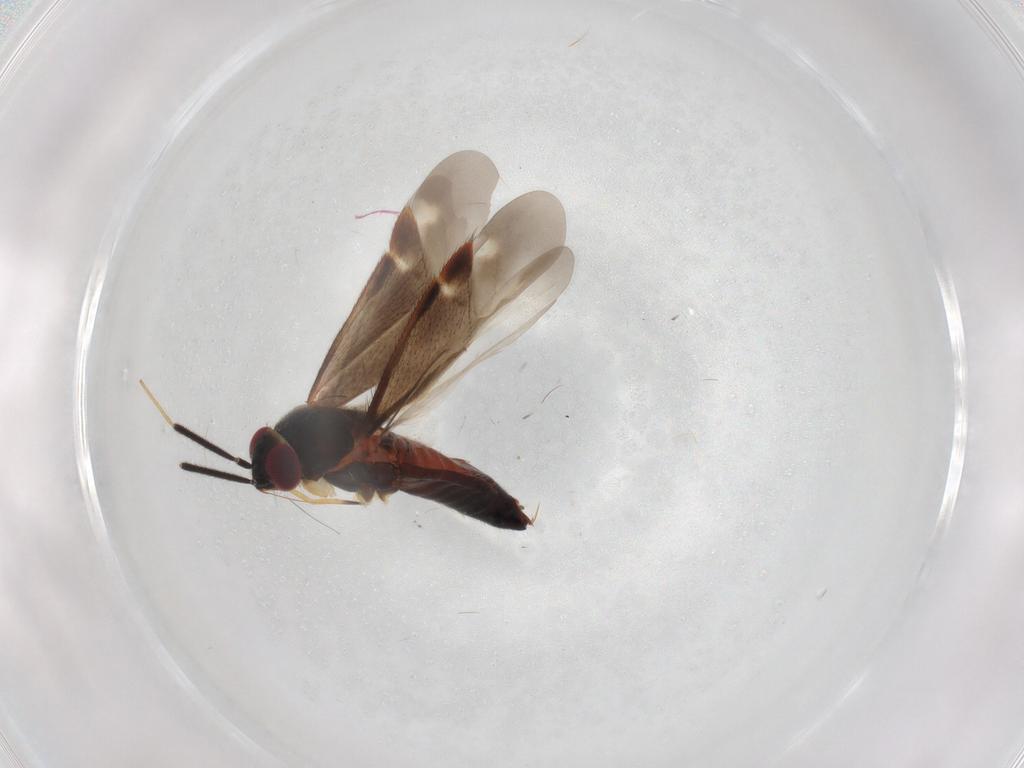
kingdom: Animalia
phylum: Arthropoda
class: Insecta
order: Hemiptera
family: Miridae
